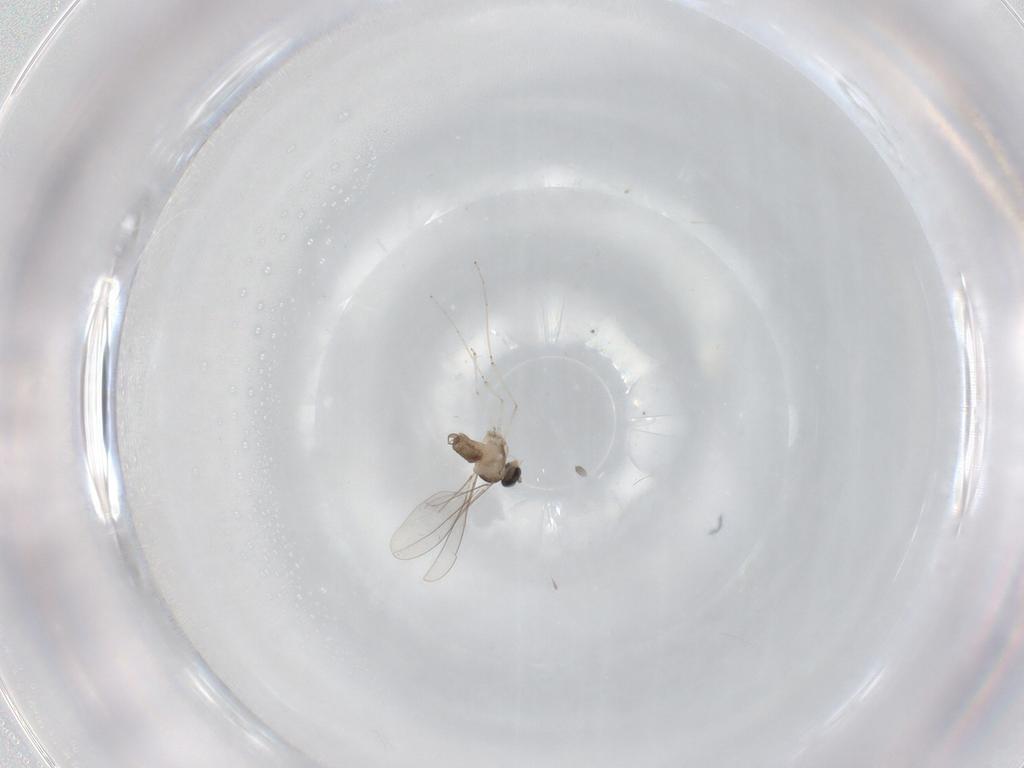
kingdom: Animalia
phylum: Arthropoda
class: Insecta
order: Diptera
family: Cecidomyiidae
